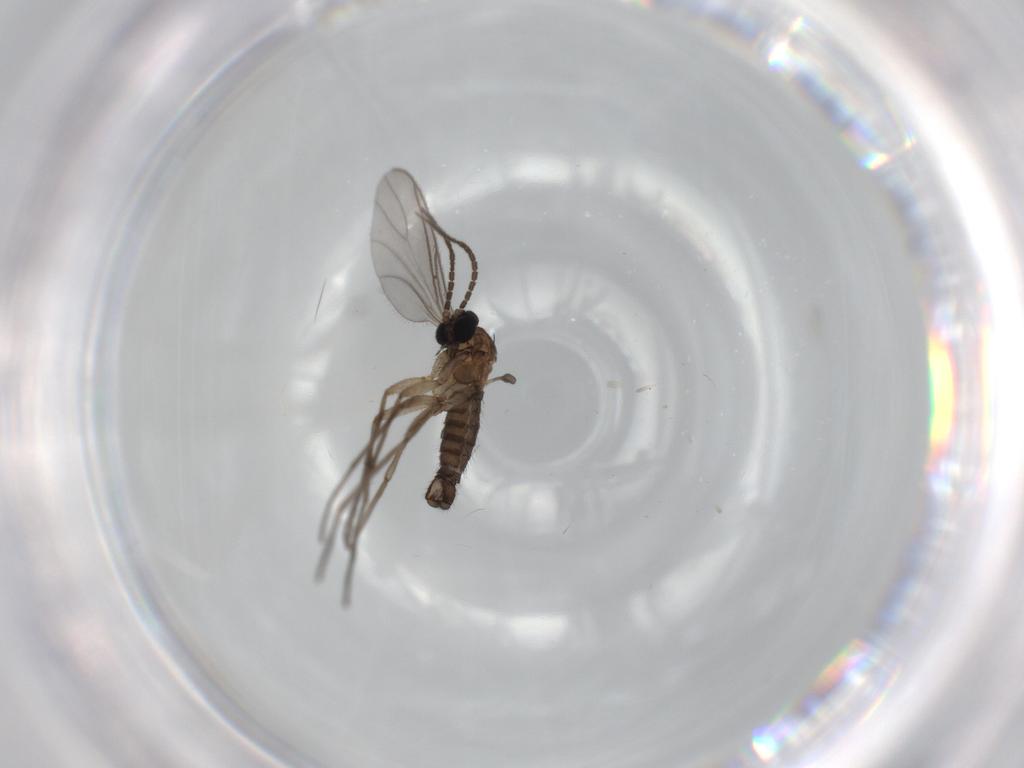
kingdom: Animalia
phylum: Arthropoda
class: Insecta
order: Diptera
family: Sciaridae
